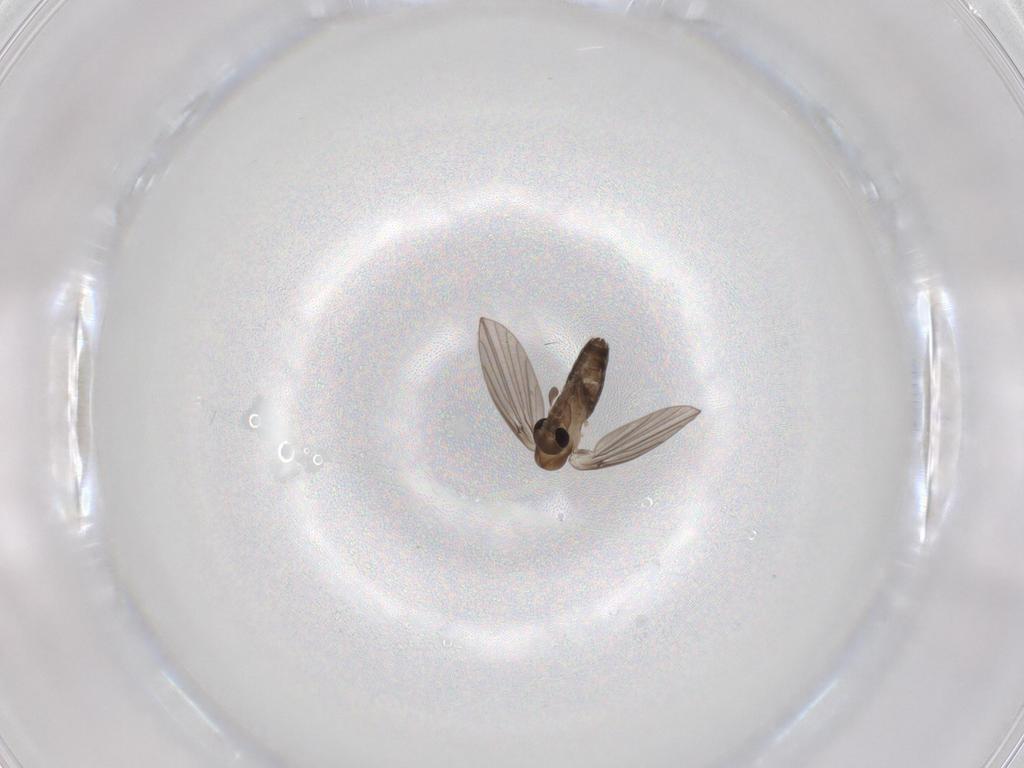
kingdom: Animalia
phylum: Arthropoda
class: Insecta
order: Diptera
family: Psychodidae
